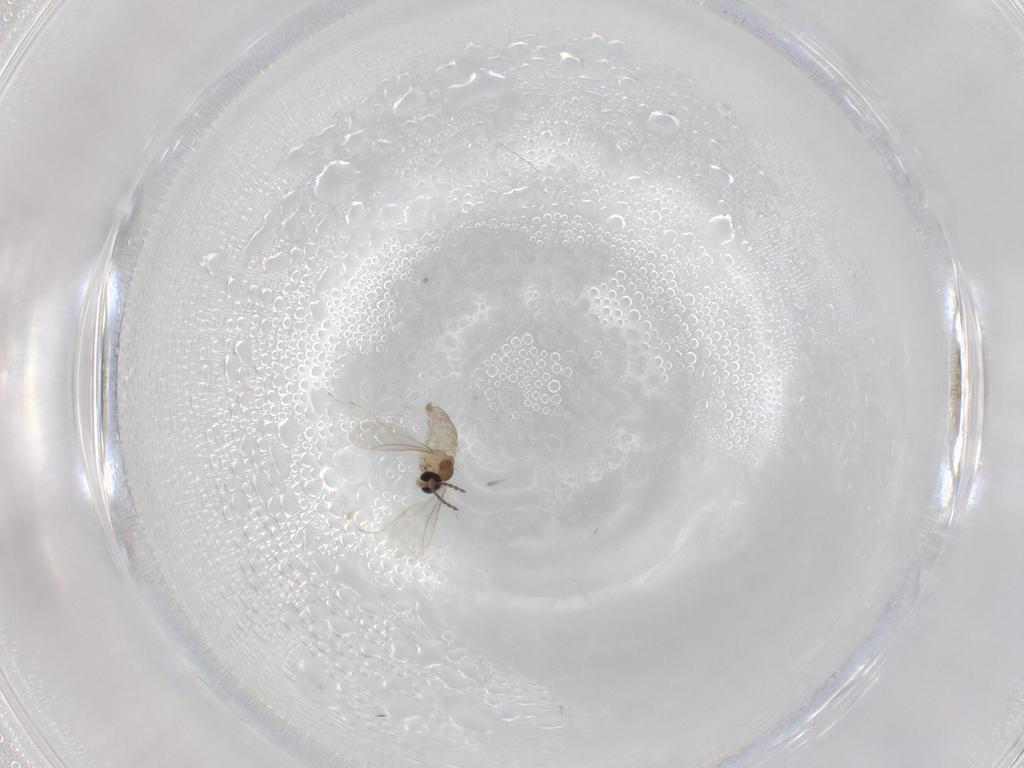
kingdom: Animalia
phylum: Arthropoda
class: Insecta
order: Diptera
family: Cecidomyiidae
